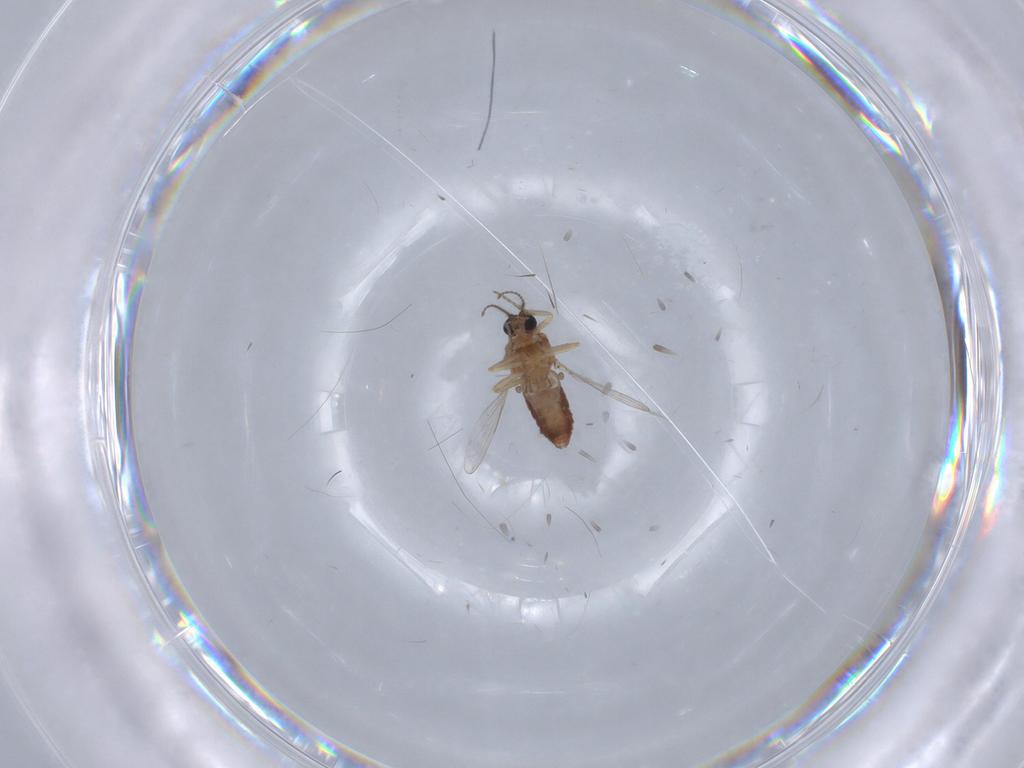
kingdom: Animalia
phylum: Arthropoda
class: Insecta
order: Diptera
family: Ceratopogonidae
